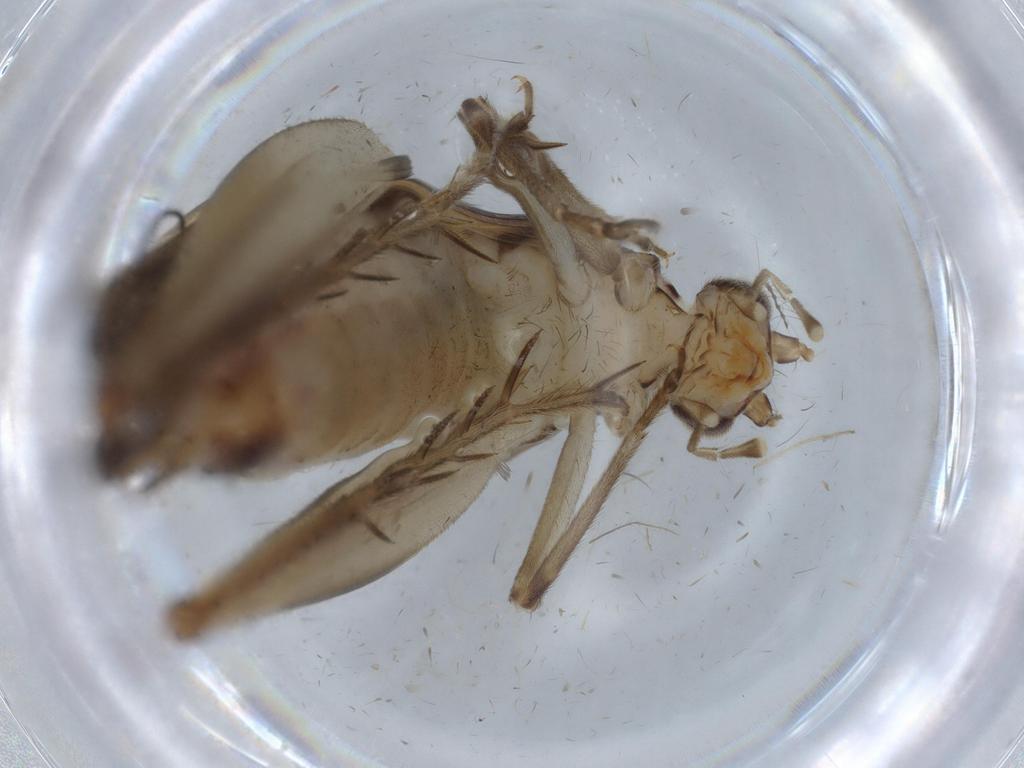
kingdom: Animalia
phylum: Arthropoda
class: Insecta
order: Orthoptera
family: Trigonidiidae
